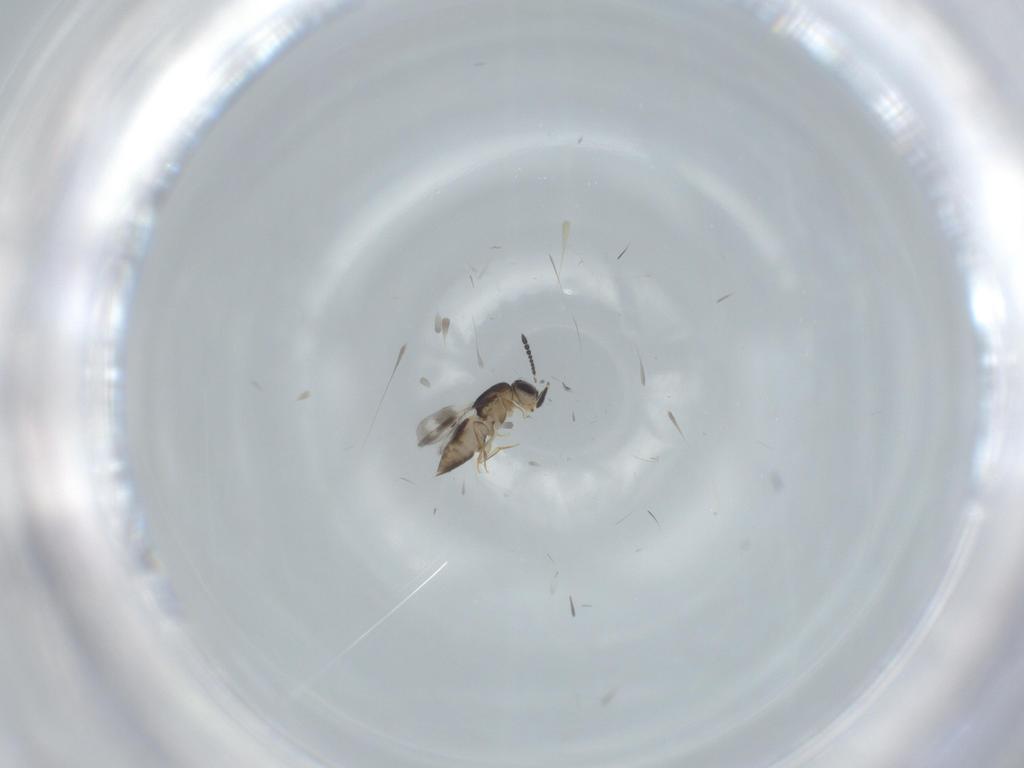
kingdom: Animalia
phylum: Arthropoda
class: Insecta
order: Hymenoptera
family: Ceraphronidae
